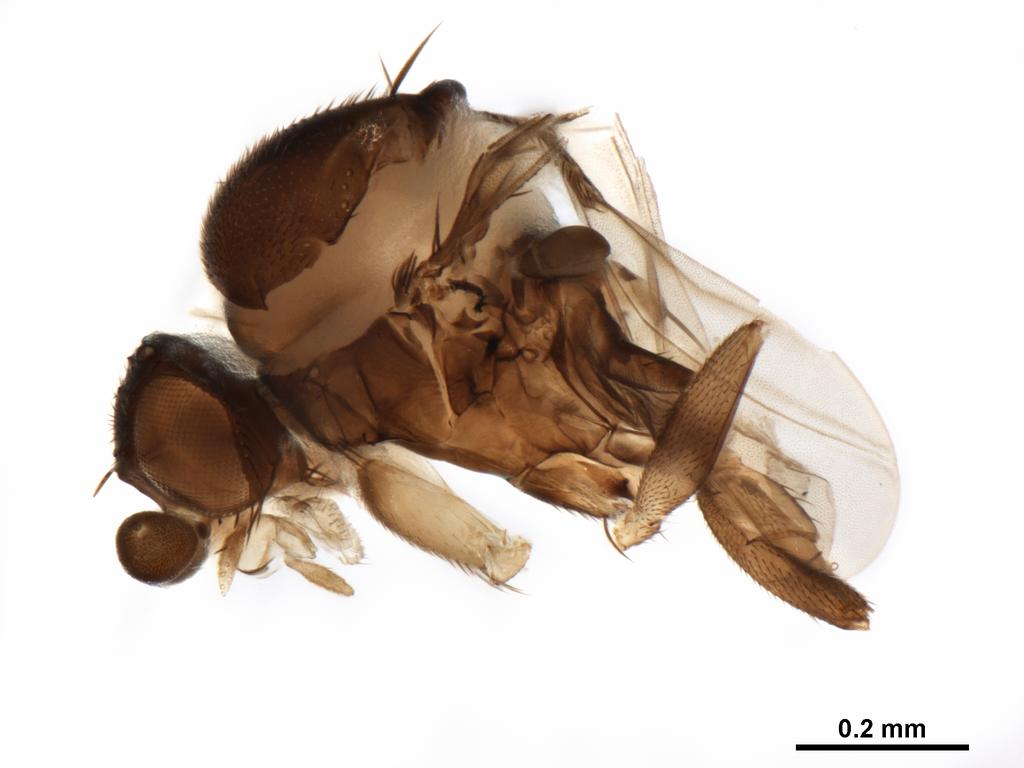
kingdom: Animalia
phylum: Arthropoda
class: Insecta
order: Diptera
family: Phoridae
